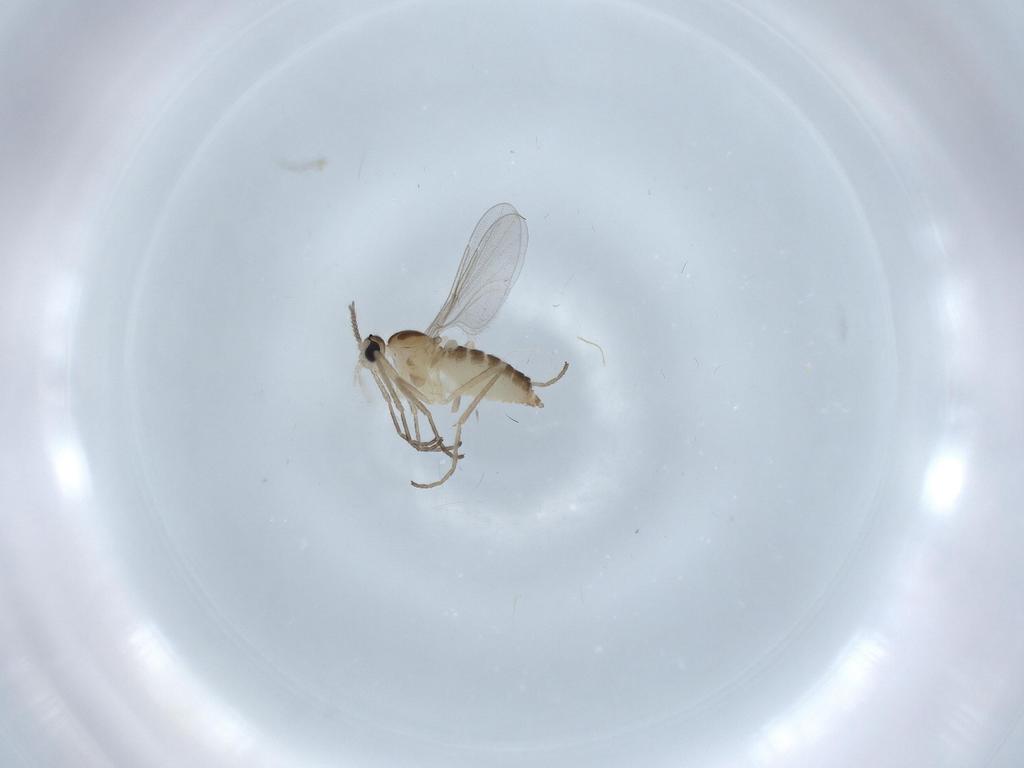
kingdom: Animalia
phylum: Arthropoda
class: Insecta
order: Diptera
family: Cecidomyiidae
